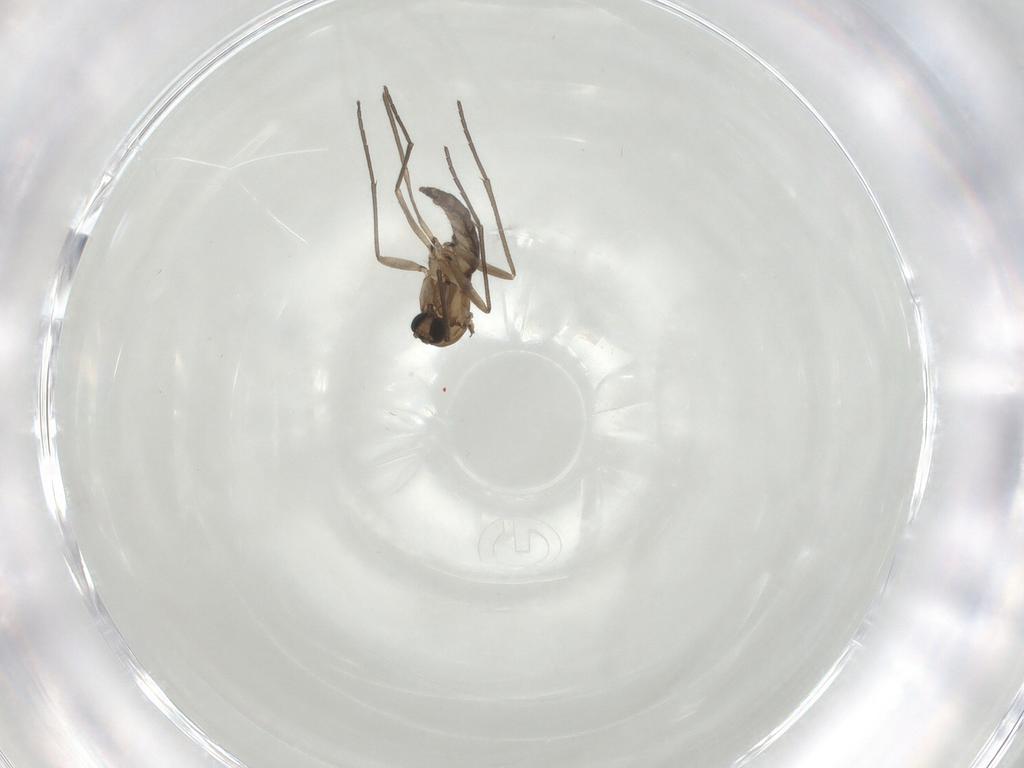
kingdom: Animalia
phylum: Arthropoda
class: Insecta
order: Diptera
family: Sciaridae
